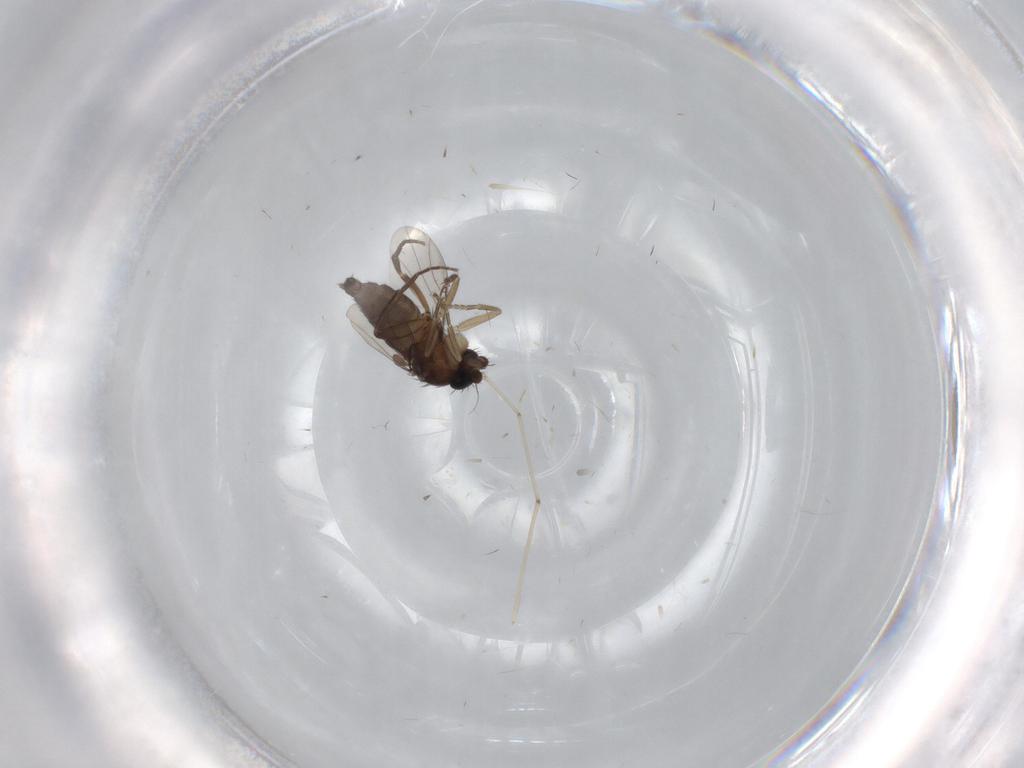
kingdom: Animalia
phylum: Arthropoda
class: Insecta
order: Diptera
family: Phoridae
